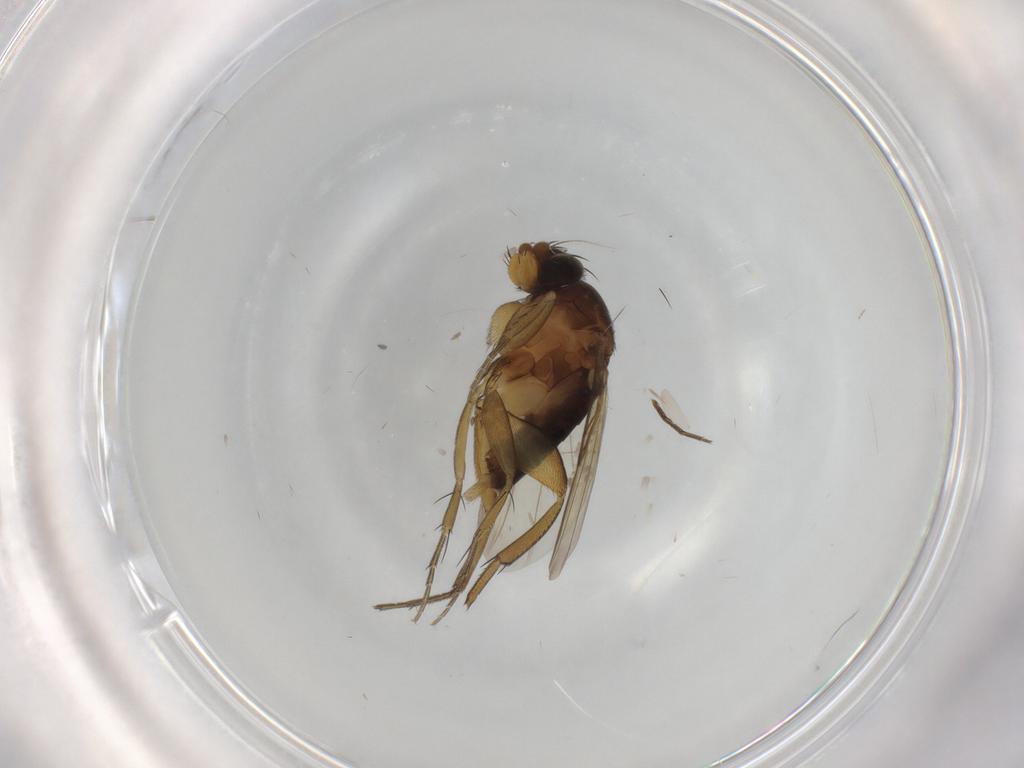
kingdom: Animalia
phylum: Arthropoda
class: Insecta
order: Diptera
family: Phoridae
